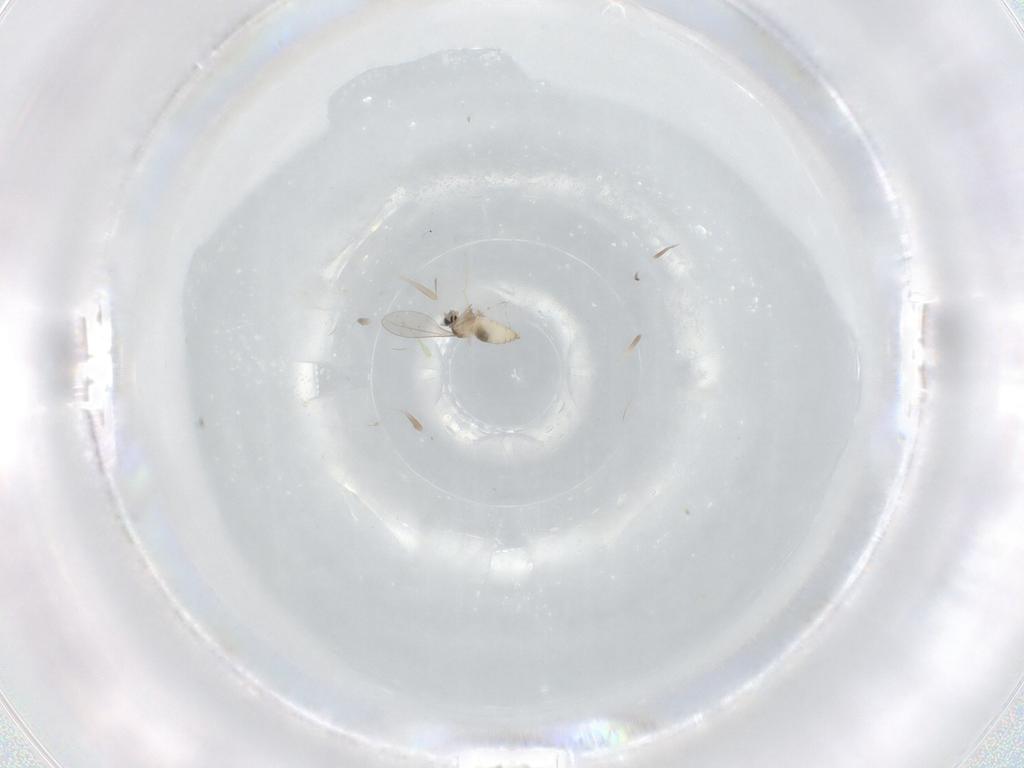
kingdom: Animalia
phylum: Arthropoda
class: Insecta
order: Diptera
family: Cecidomyiidae
